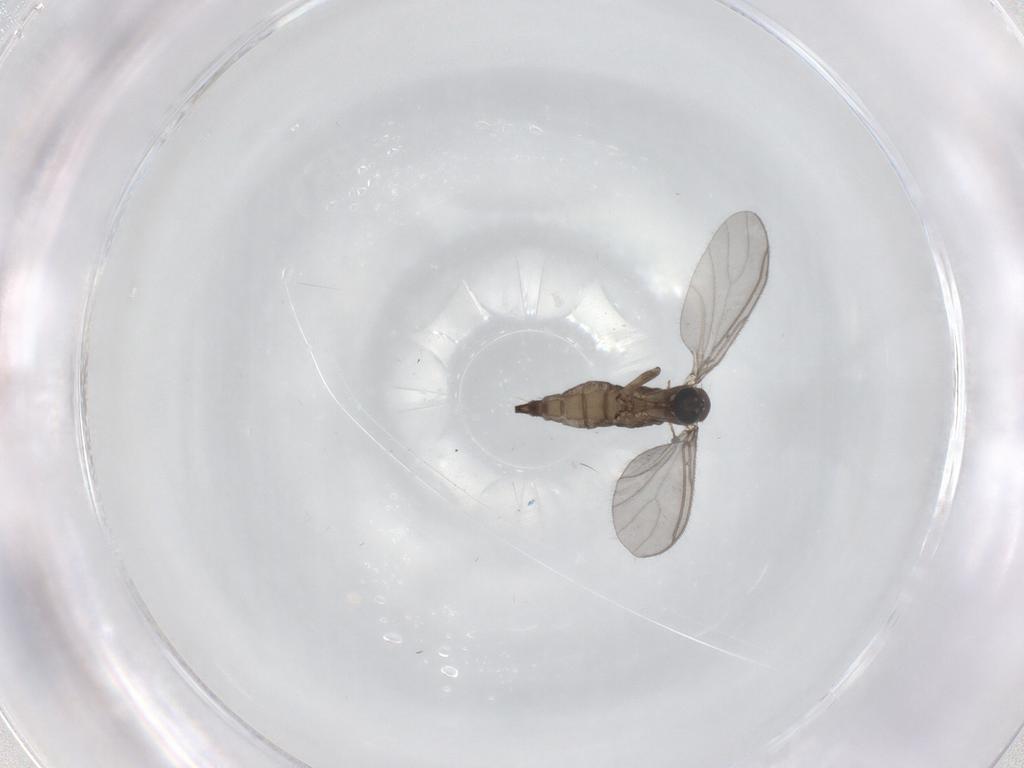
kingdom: Animalia
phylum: Arthropoda
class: Insecta
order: Diptera
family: Sciaridae
